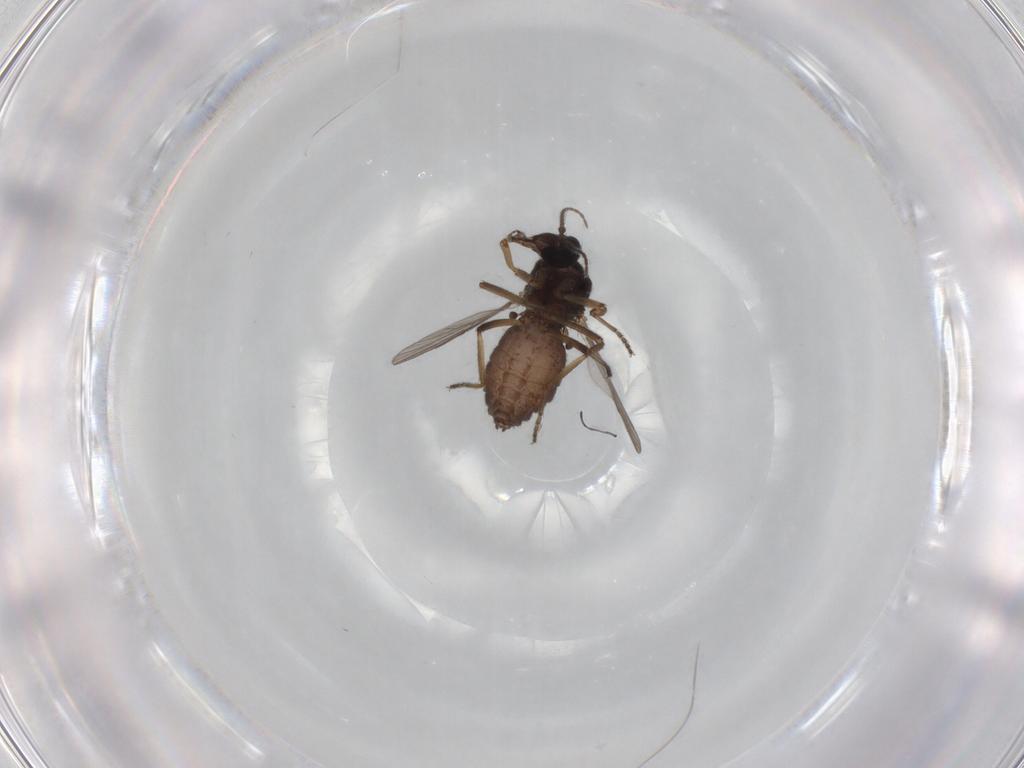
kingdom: Animalia
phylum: Arthropoda
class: Insecta
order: Diptera
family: Ceratopogonidae
